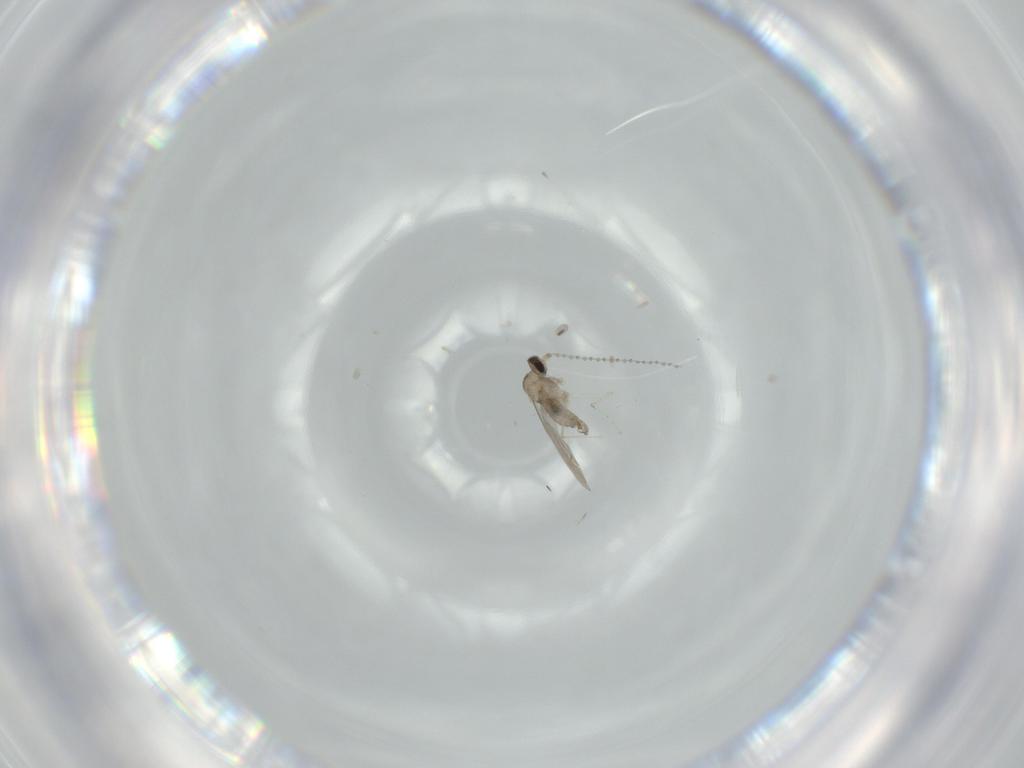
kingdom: Animalia
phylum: Arthropoda
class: Insecta
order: Diptera
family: Cecidomyiidae
